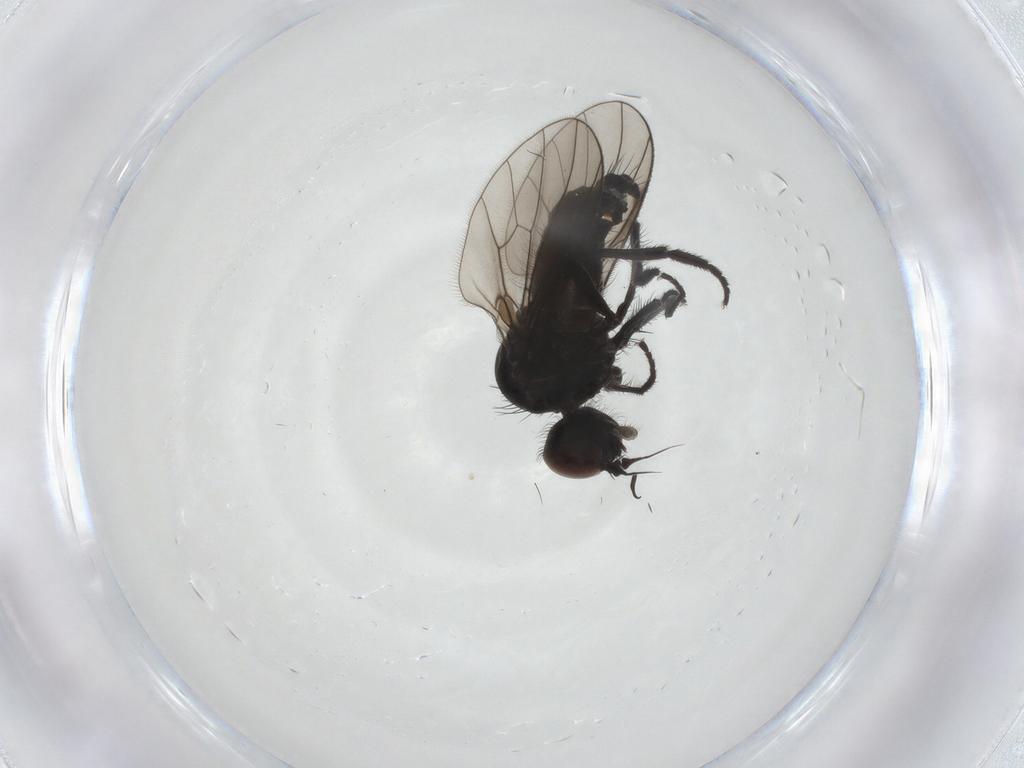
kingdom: Animalia
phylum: Arthropoda
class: Insecta
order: Diptera
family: Dolichopodidae
